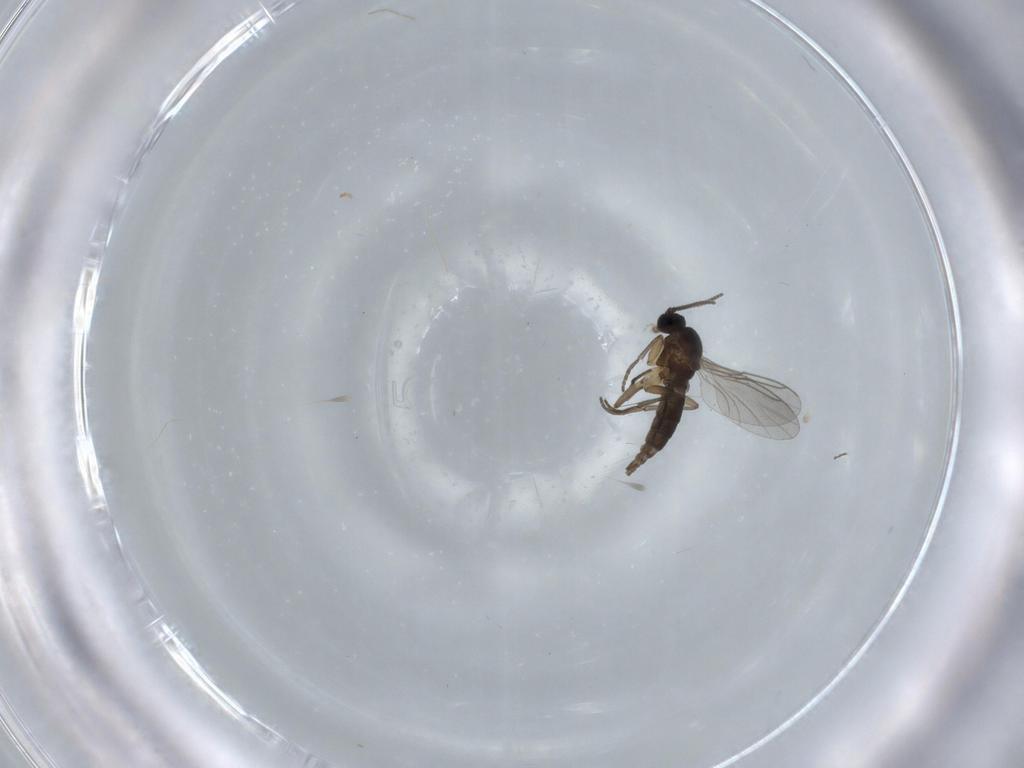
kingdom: Animalia
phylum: Arthropoda
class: Insecta
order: Diptera
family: Sciaridae
